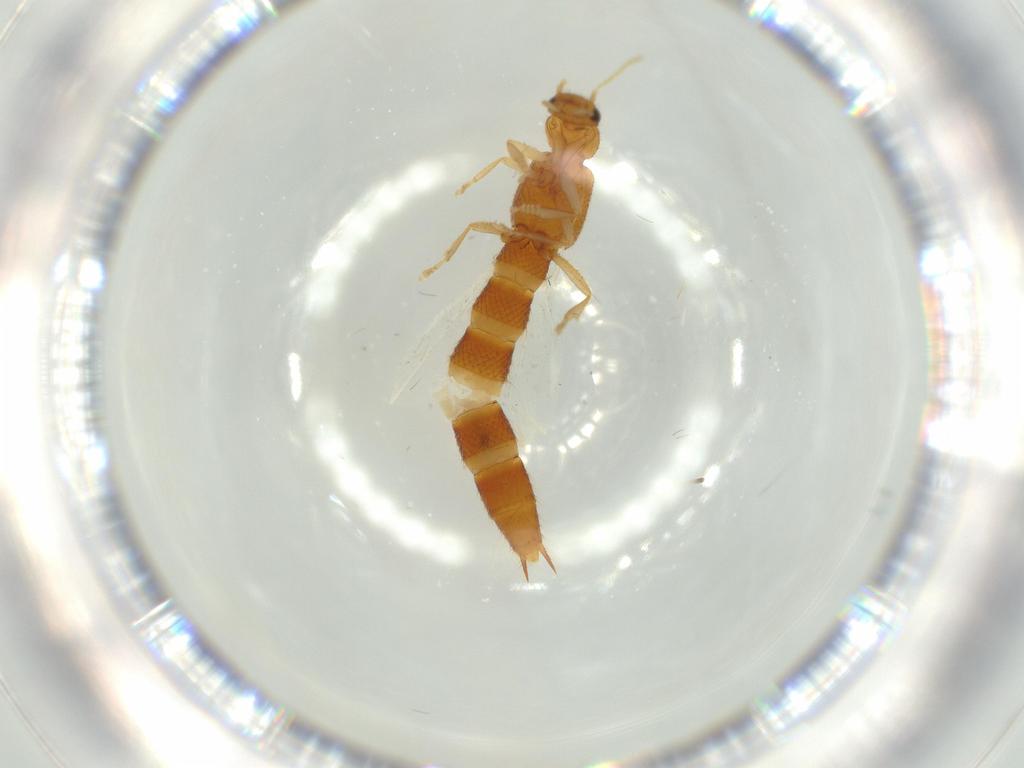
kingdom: Animalia
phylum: Arthropoda
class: Insecta
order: Coleoptera
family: Staphylinidae
